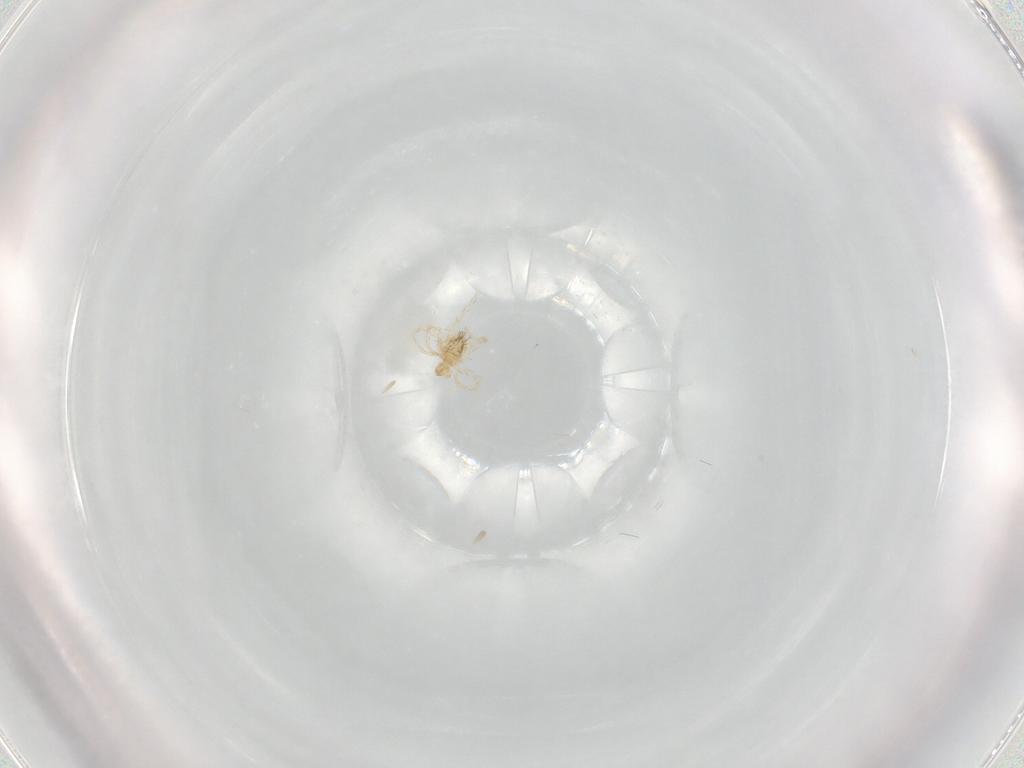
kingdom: Animalia
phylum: Arthropoda
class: Arachnida
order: Trombidiformes
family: Erythraeidae
